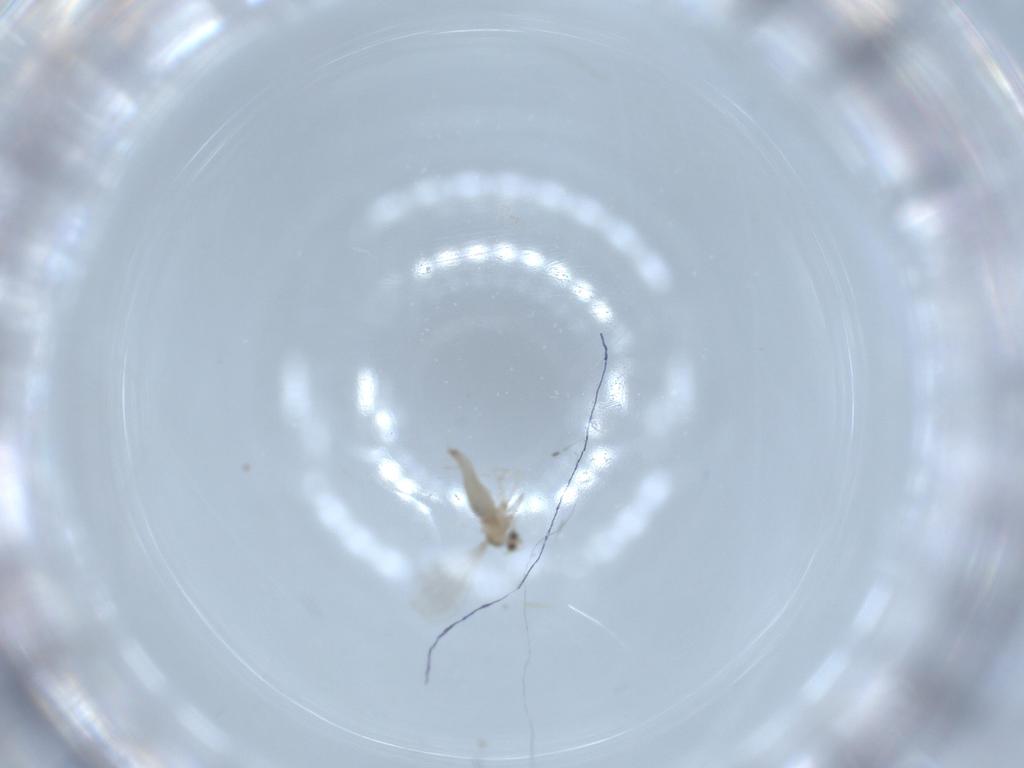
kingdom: Animalia
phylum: Arthropoda
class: Insecta
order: Diptera
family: Cecidomyiidae
